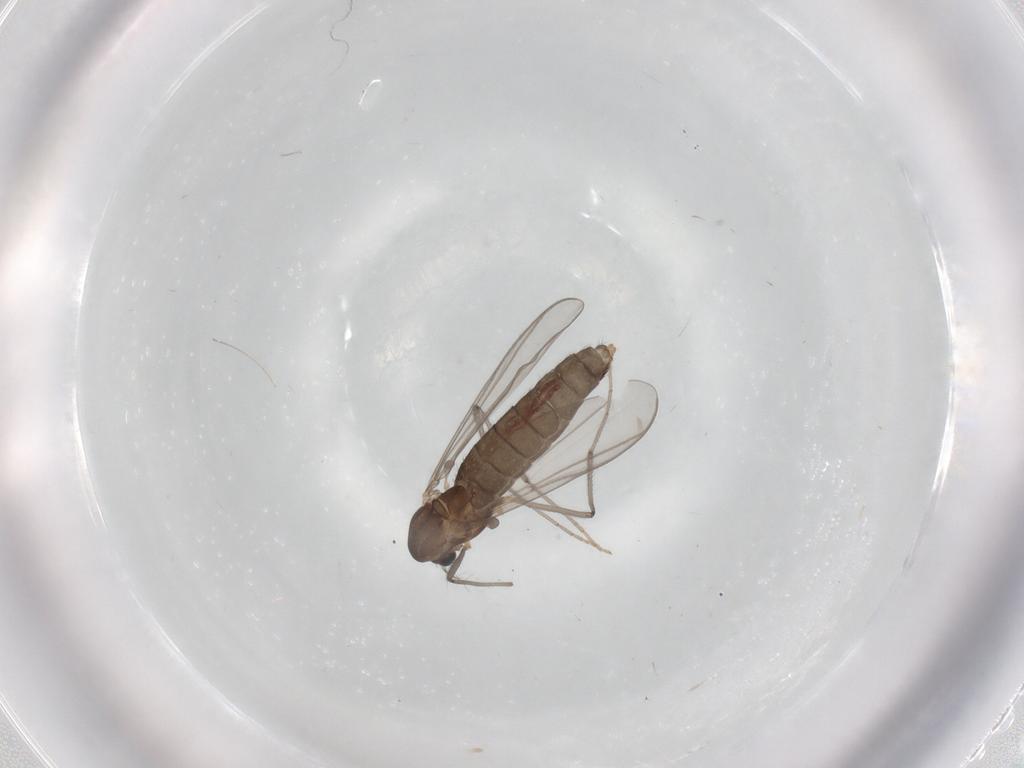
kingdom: Animalia
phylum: Arthropoda
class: Insecta
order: Diptera
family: Chironomidae
